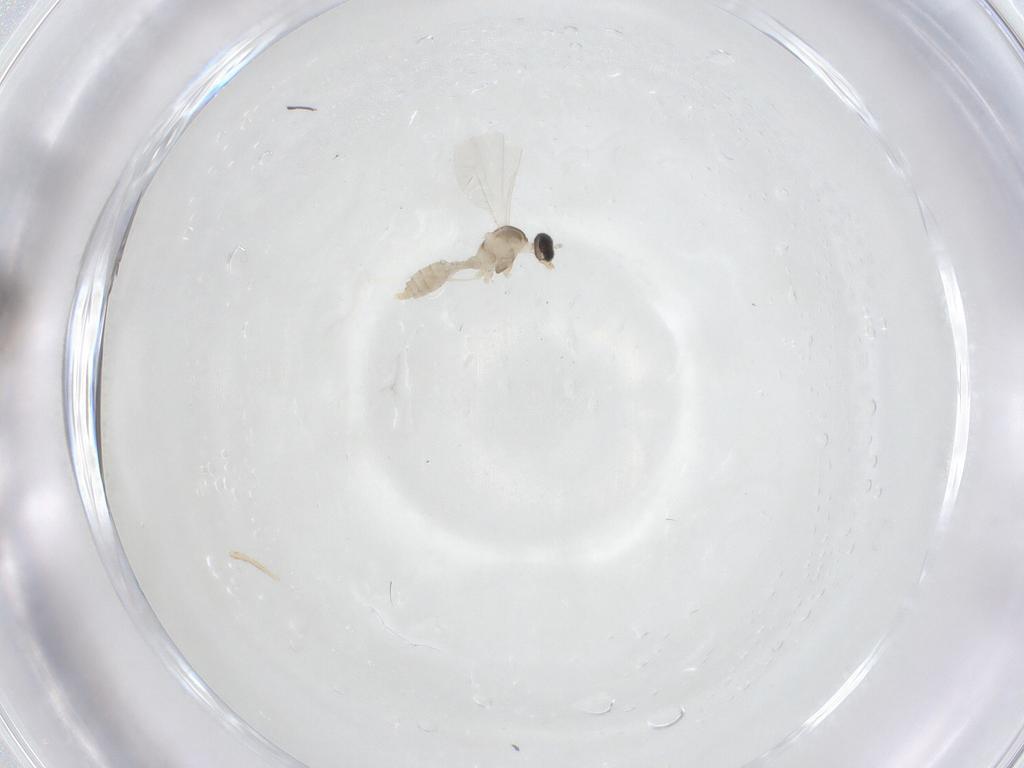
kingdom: Animalia
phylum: Arthropoda
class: Insecta
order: Diptera
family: Cecidomyiidae
